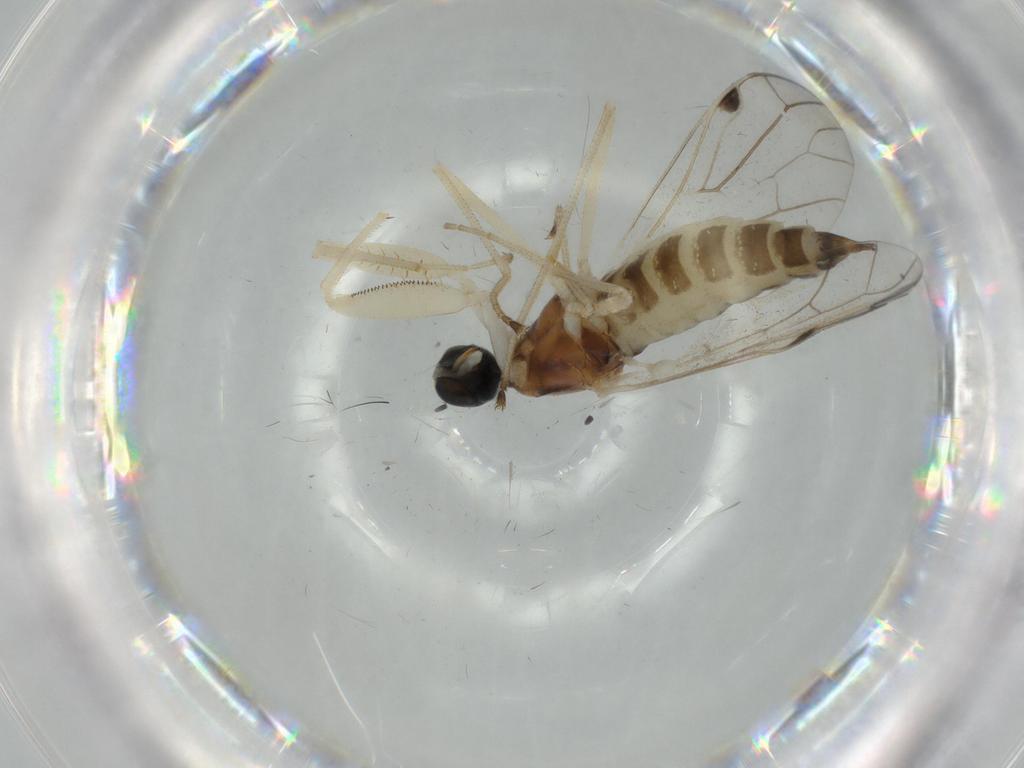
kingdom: Animalia
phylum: Arthropoda
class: Insecta
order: Diptera
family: Empididae
